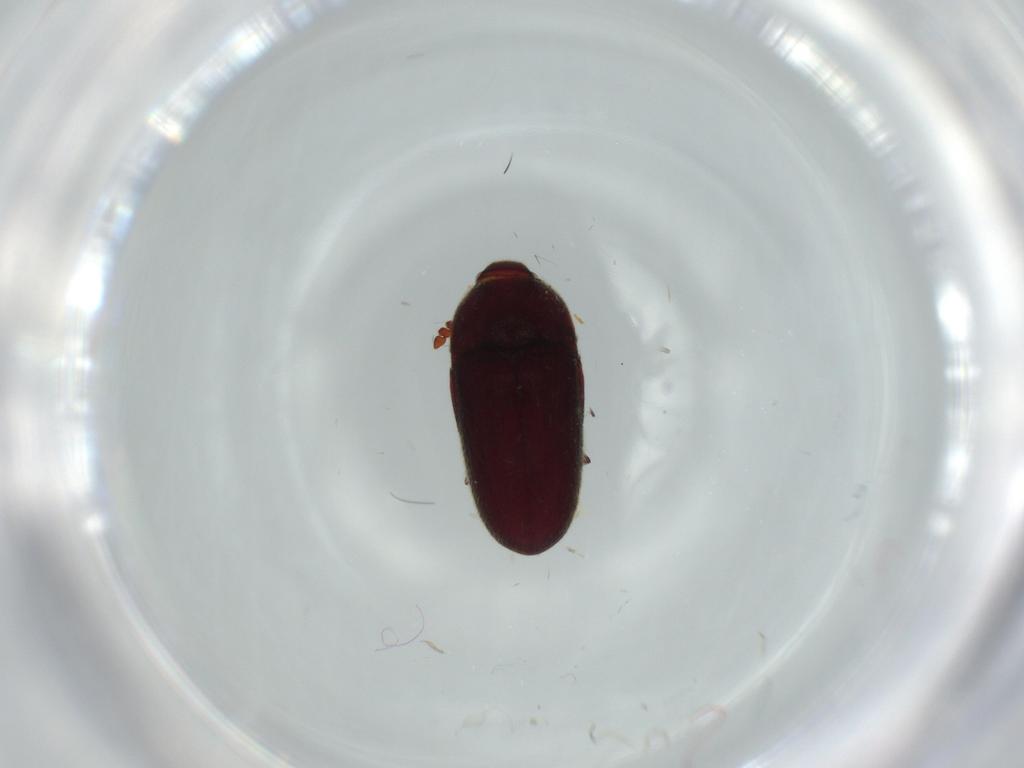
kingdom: Animalia
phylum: Arthropoda
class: Insecta
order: Coleoptera
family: Throscidae
